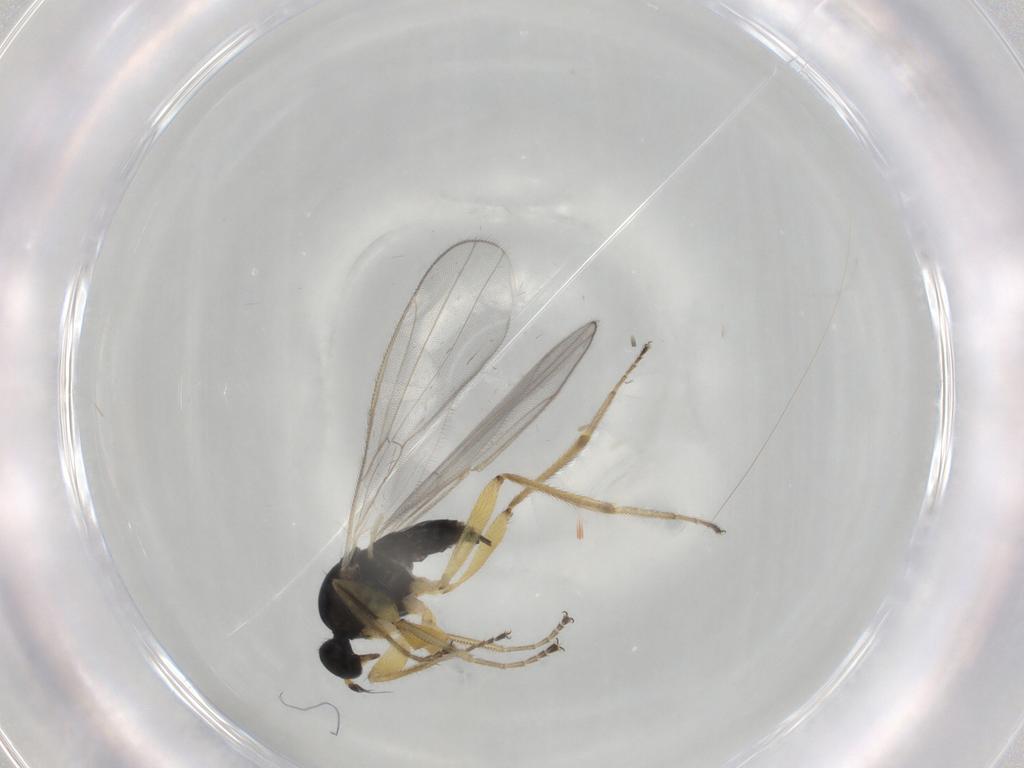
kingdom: Animalia
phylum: Arthropoda
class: Insecta
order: Diptera
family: Hybotidae
